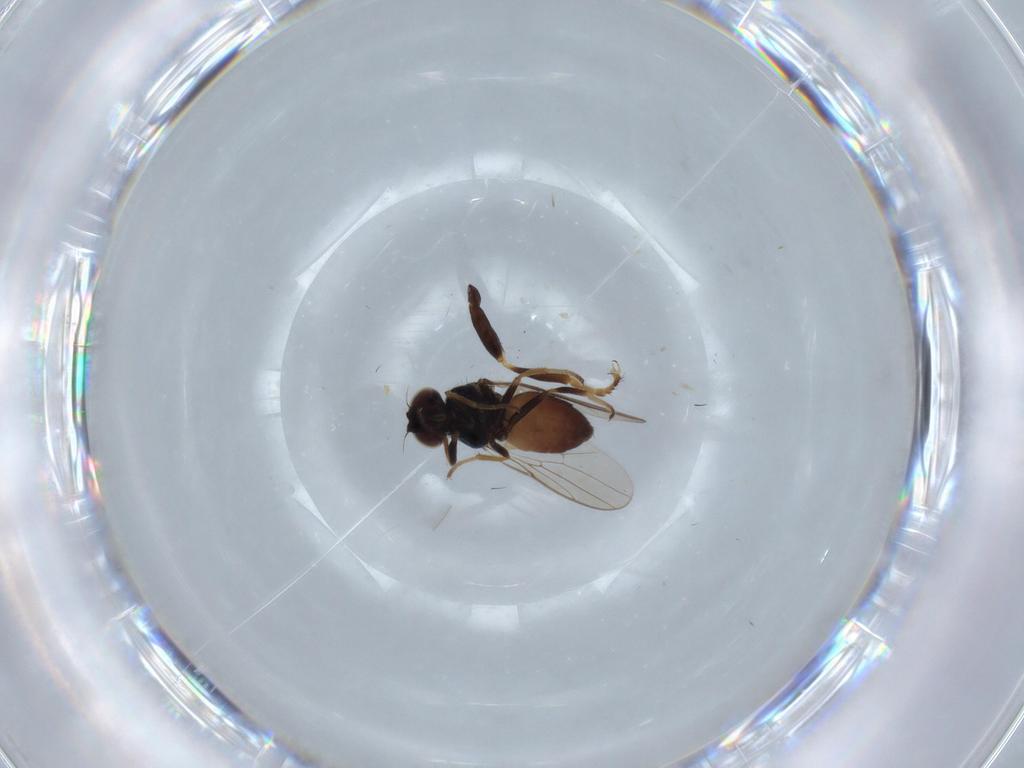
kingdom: Animalia
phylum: Arthropoda
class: Insecta
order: Diptera
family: Pipunculidae
